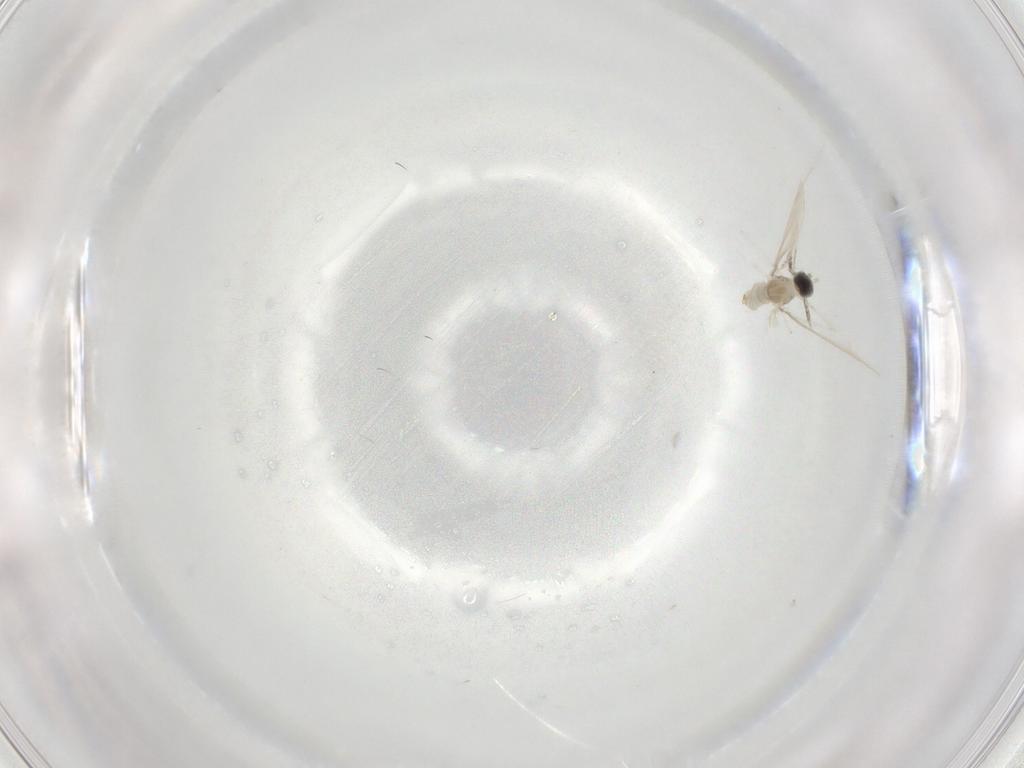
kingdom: Animalia
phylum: Arthropoda
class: Insecta
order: Diptera
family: Cecidomyiidae
